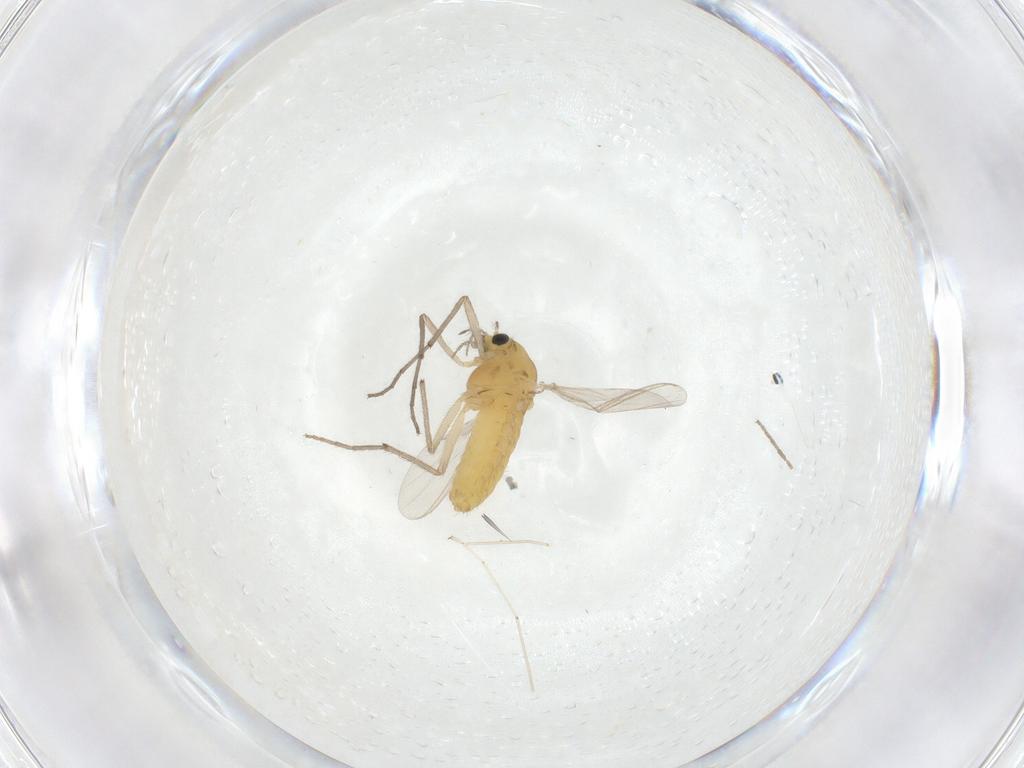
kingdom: Animalia
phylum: Arthropoda
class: Insecta
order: Diptera
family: Chironomidae
